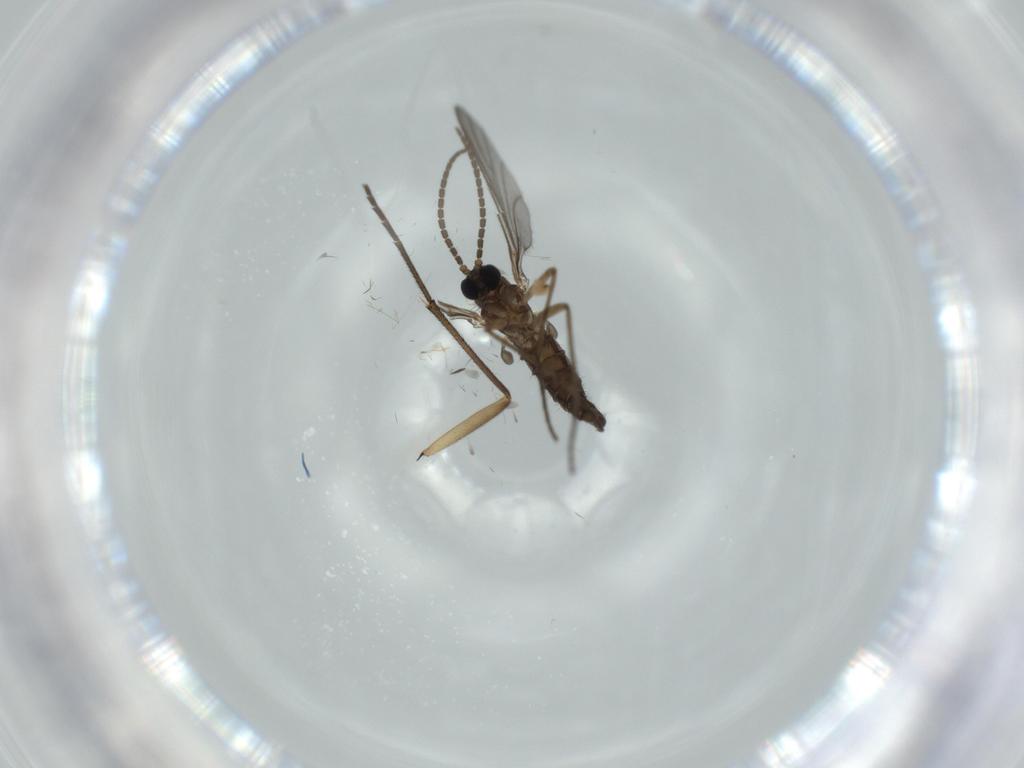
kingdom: Animalia
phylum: Arthropoda
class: Insecta
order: Diptera
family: Sciaridae
